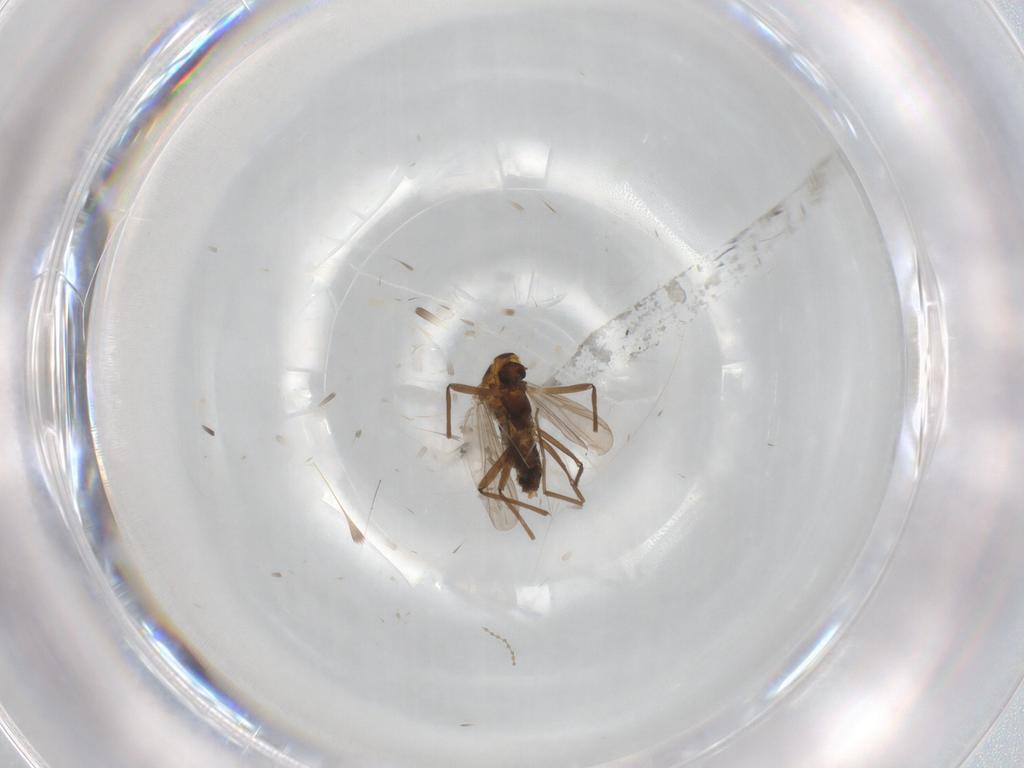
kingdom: Animalia
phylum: Arthropoda
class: Insecta
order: Diptera
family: Chironomidae
